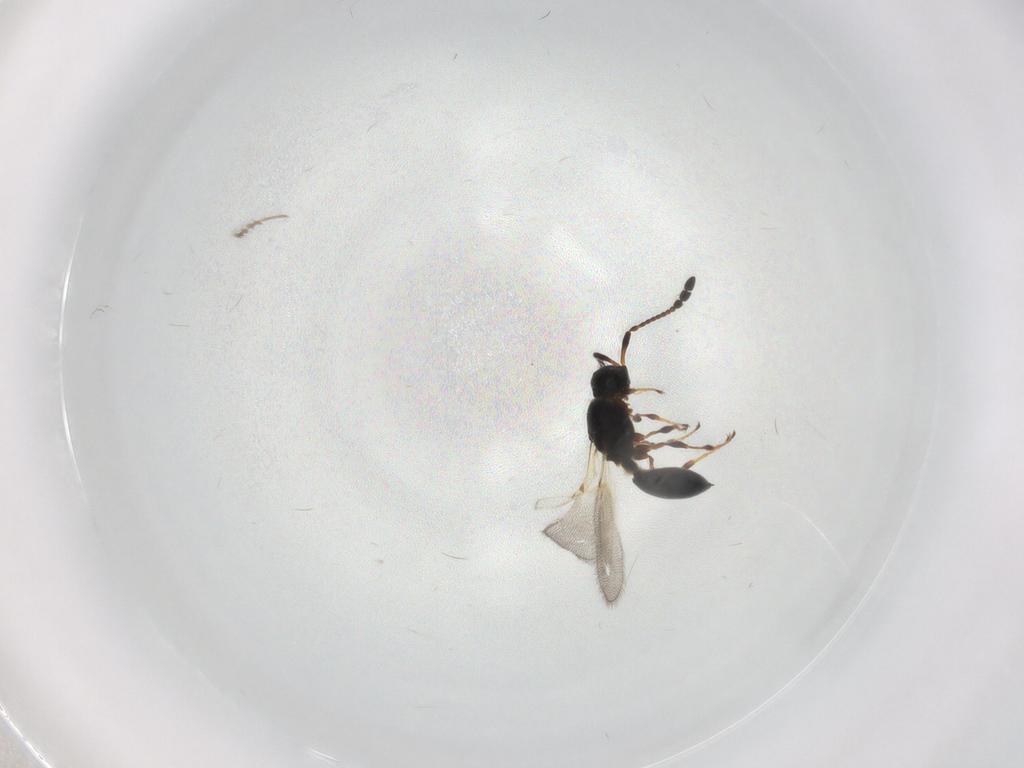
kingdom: Animalia
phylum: Arthropoda
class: Insecta
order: Hymenoptera
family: Diapriidae
